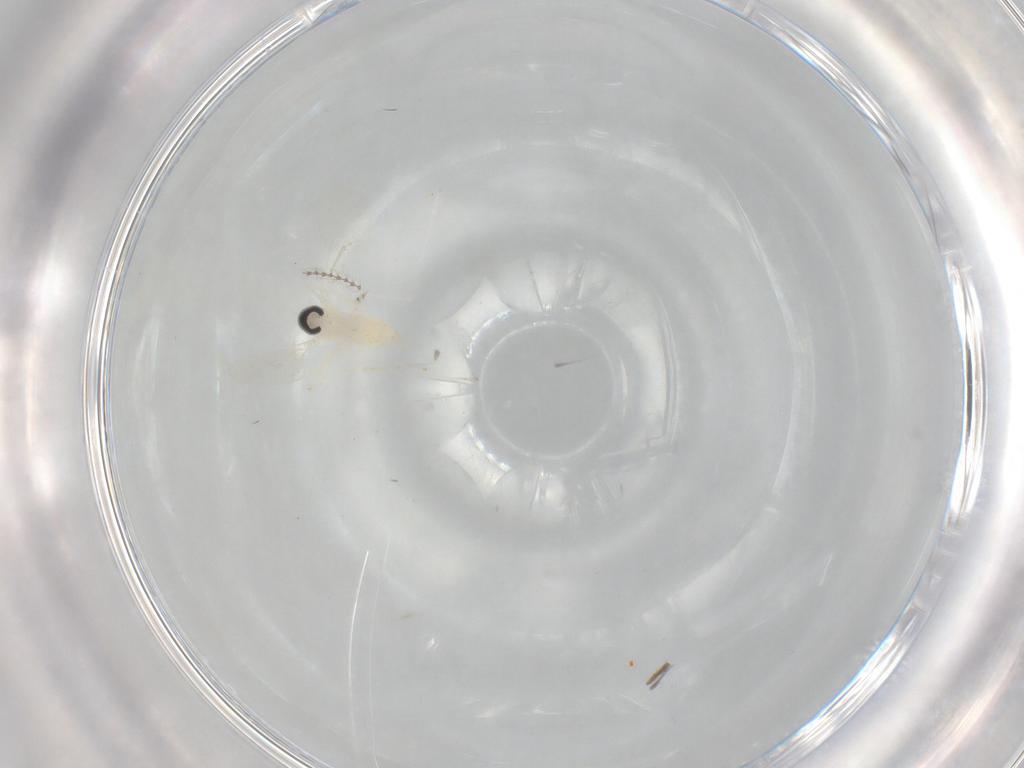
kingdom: Animalia
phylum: Arthropoda
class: Insecta
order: Diptera
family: Cecidomyiidae
